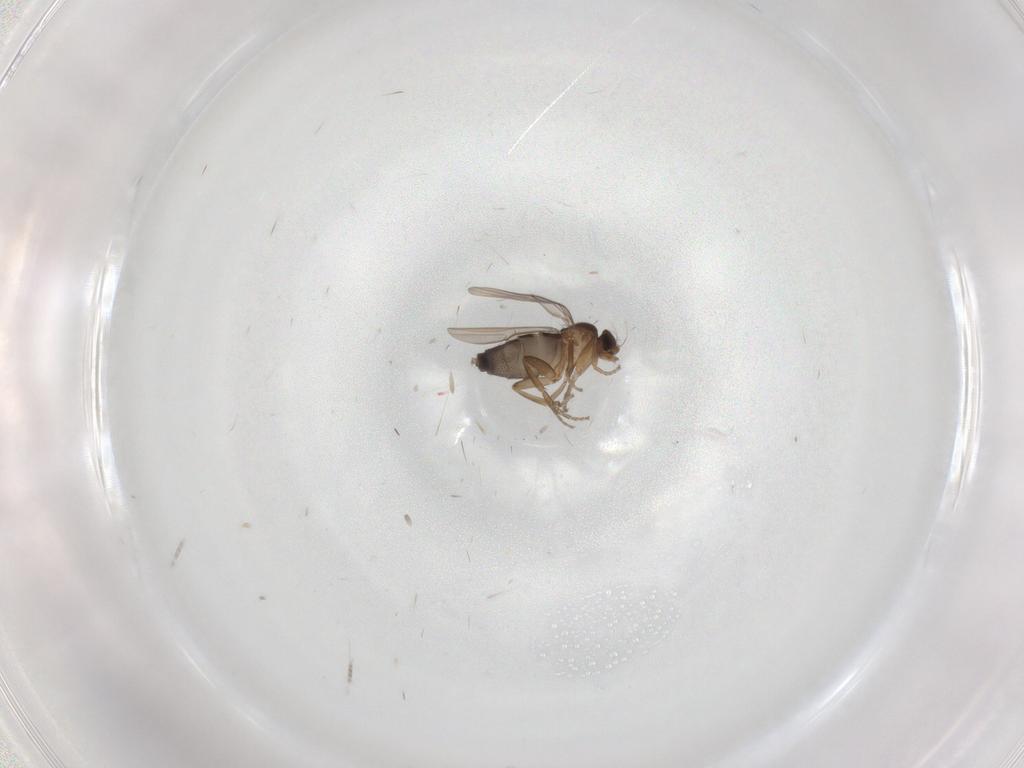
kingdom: Animalia
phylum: Arthropoda
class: Insecta
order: Diptera
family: Cecidomyiidae
